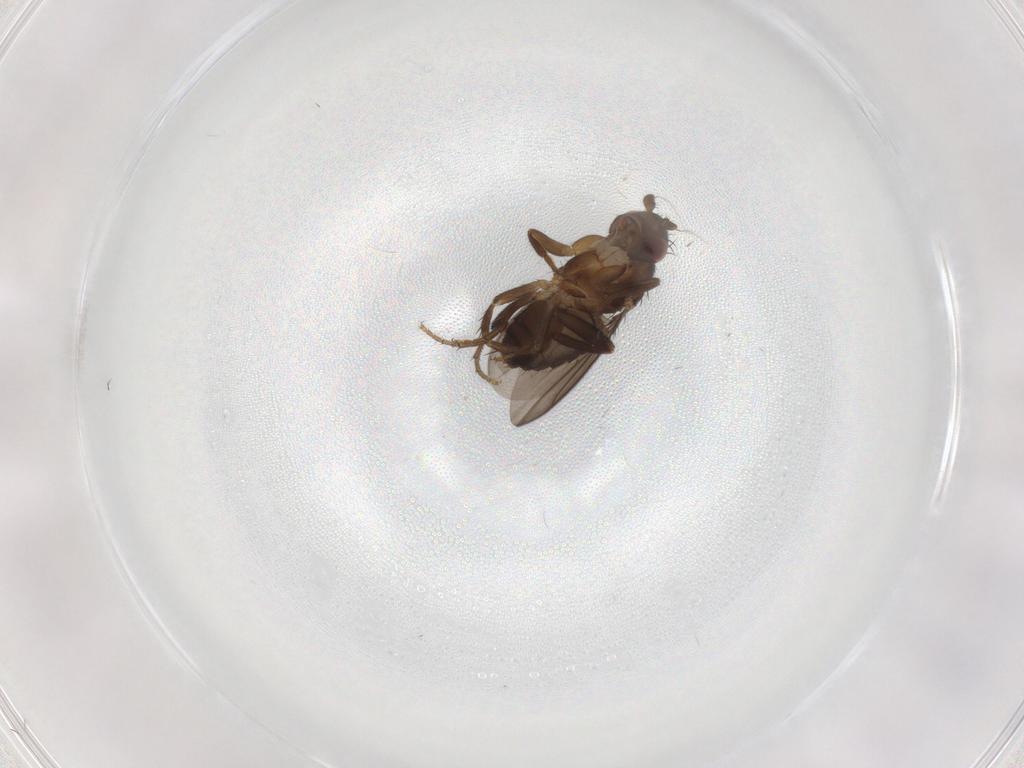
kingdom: Animalia
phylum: Arthropoda
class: Insecta
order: Diptera
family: Sphaeroceridae
